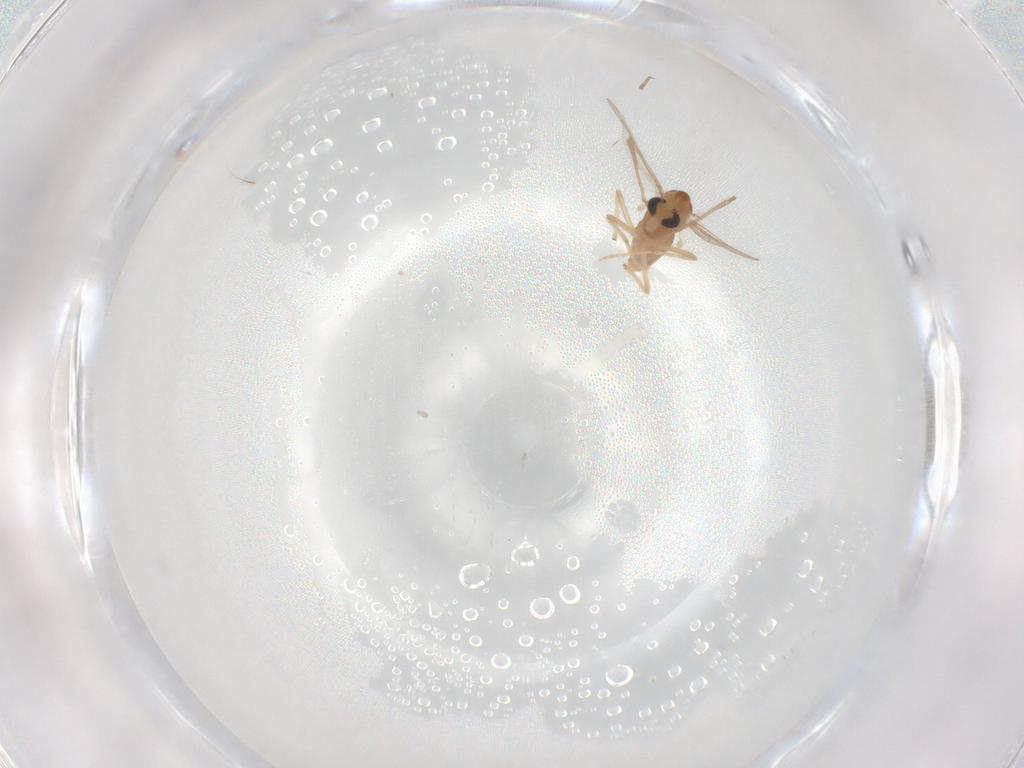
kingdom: Animalia
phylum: Arthropoda
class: Insecta
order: Diptera
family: Chironomidae
